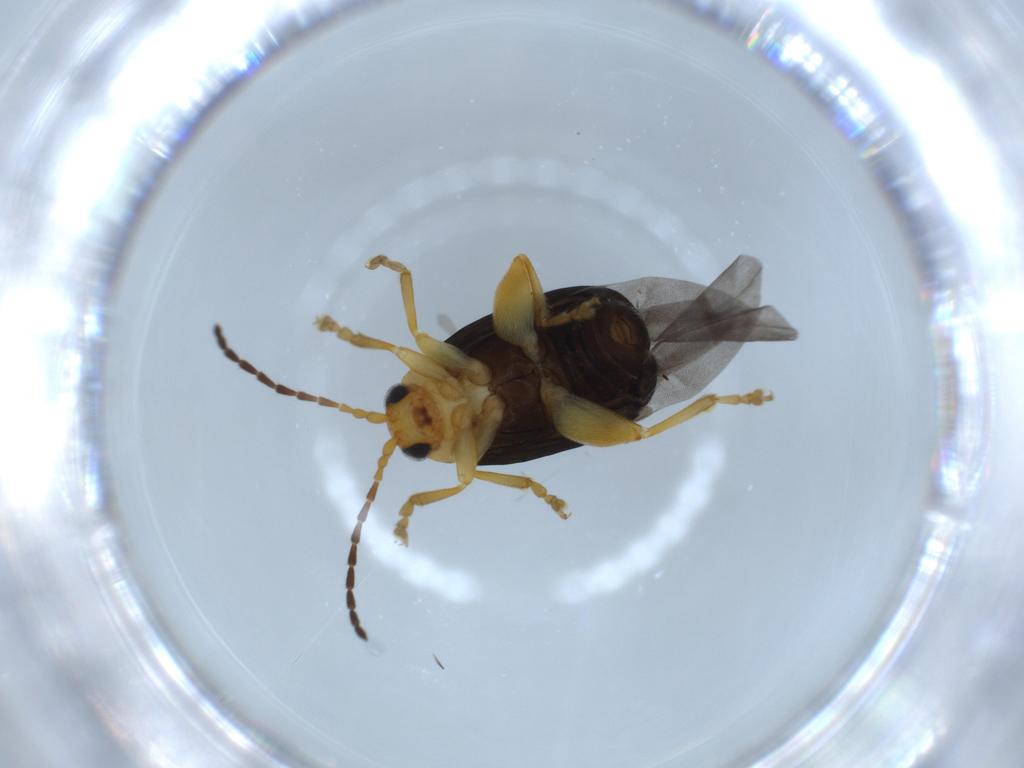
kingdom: Animalia
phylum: Arthropoda
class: Insecta
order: Coleoptera
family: Chrysomelidae
